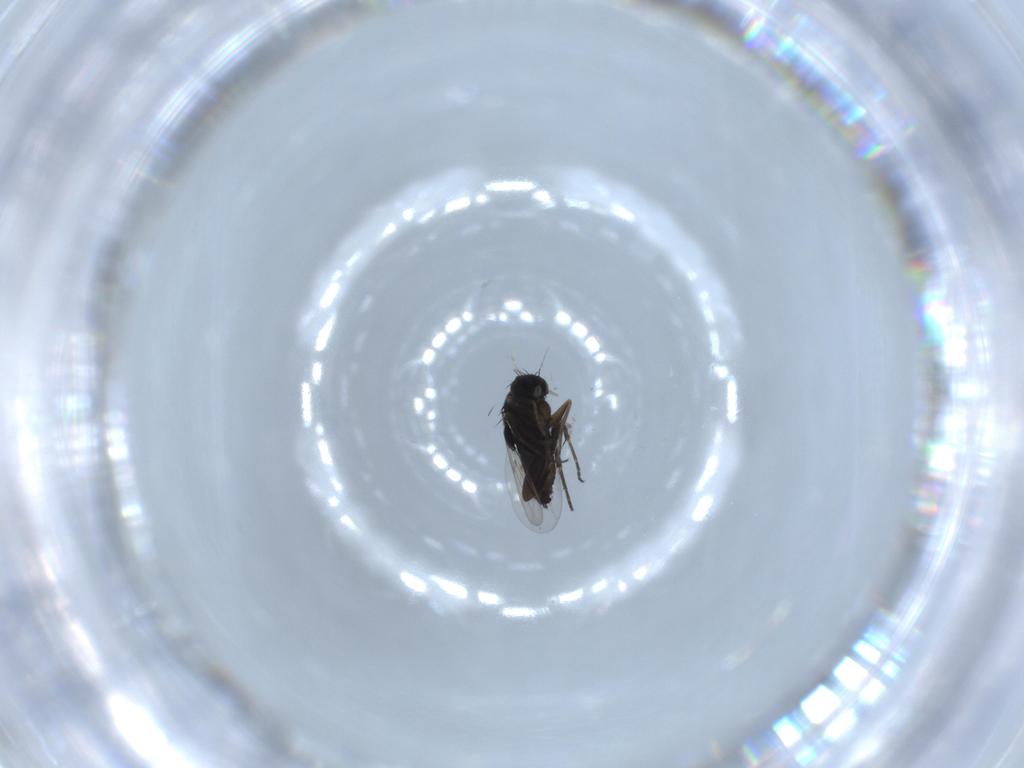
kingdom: Animalia
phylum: Arthropoda
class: Insecta
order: Diptera
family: Phoridae
